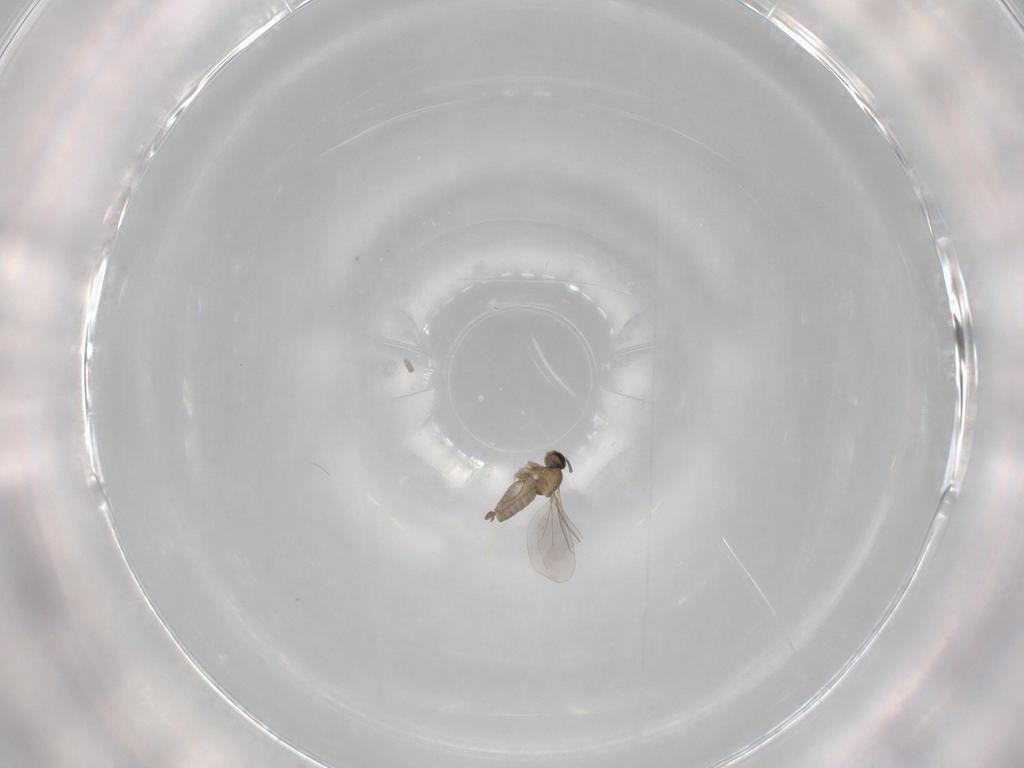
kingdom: Animalia
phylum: Arthropoda
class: Insecta
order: Diptera
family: Cecidomyiidae
